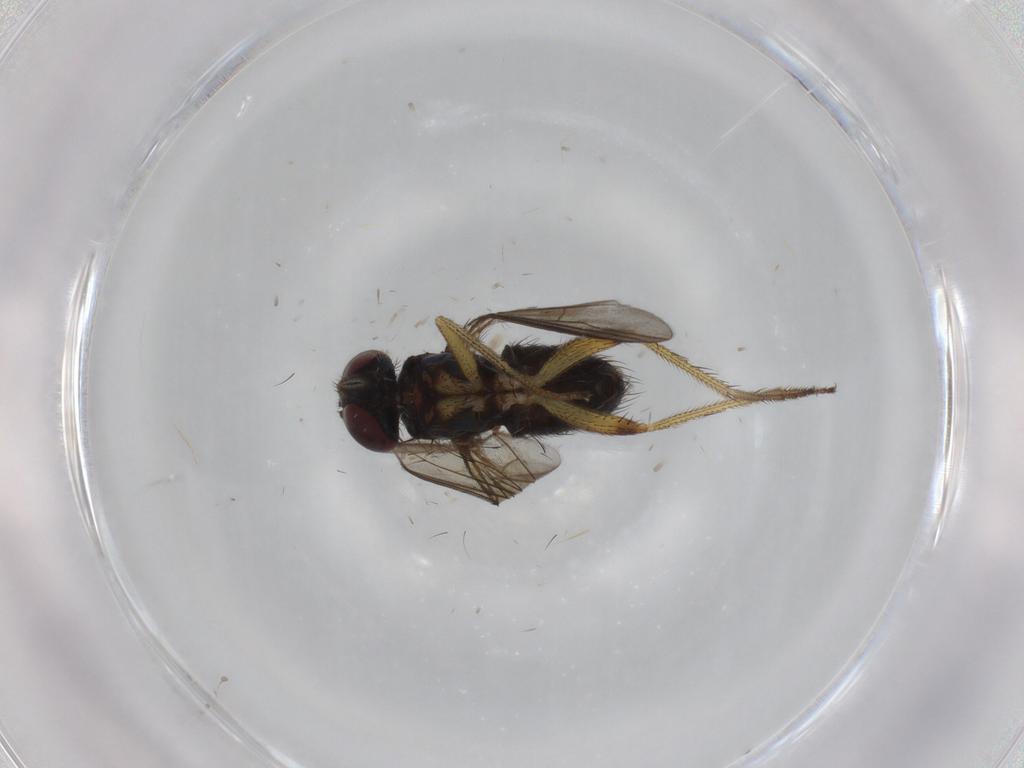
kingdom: Animalia
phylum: Arthropoda
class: Insecta
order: Diptera
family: Dolichopodidae
